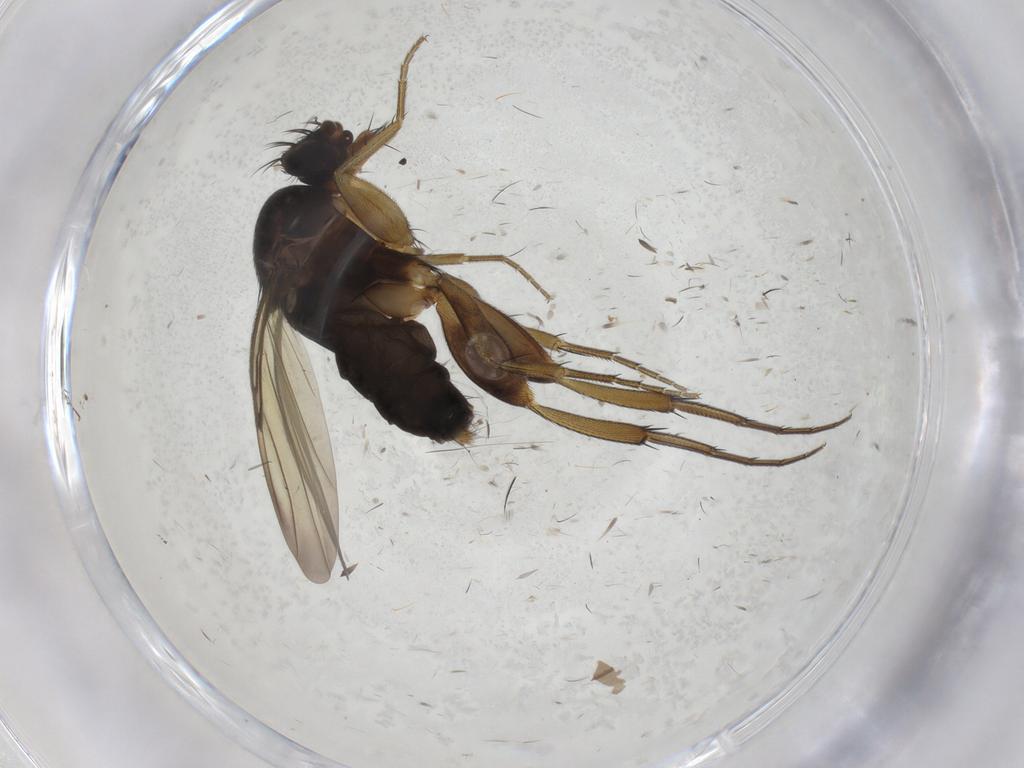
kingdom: Animalia
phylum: Arthropoda
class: Insecta
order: Diptera
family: Phoridae
